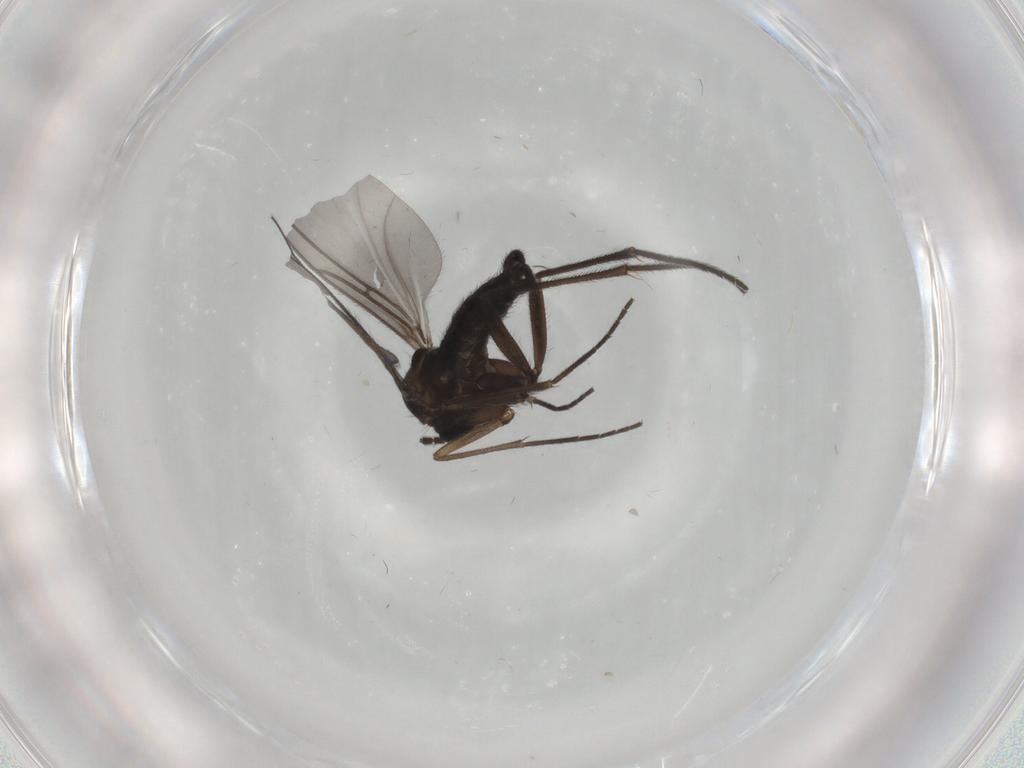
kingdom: Animalia
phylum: Arthropoda
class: Insecta
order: Diptera
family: Sciaridae
